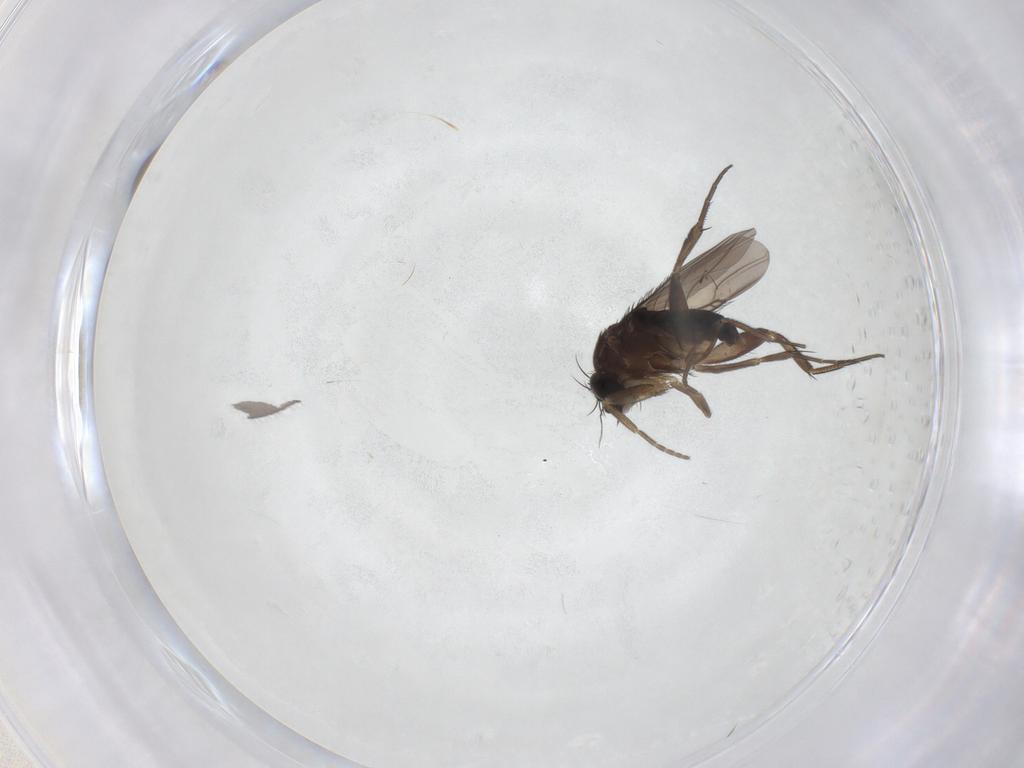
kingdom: Animalia
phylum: Arthropoda
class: Insecta
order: Diptera
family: Phoridae
